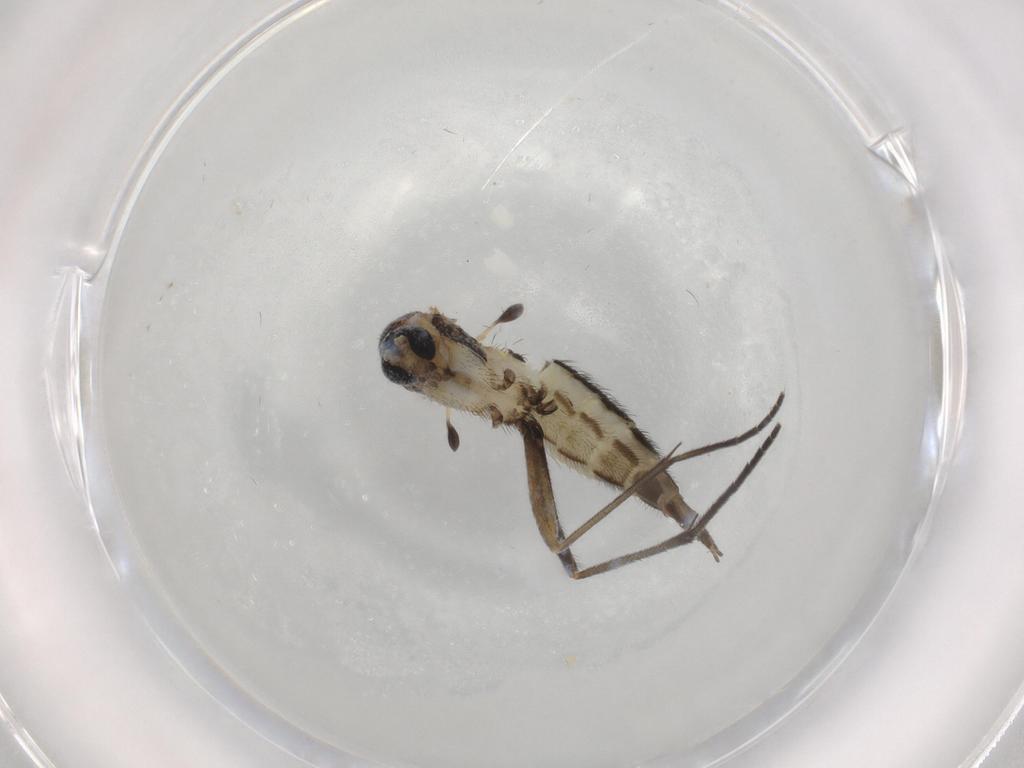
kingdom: Animalia
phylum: Arthropoda
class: Insecta
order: Diptera
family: Sciaridae
